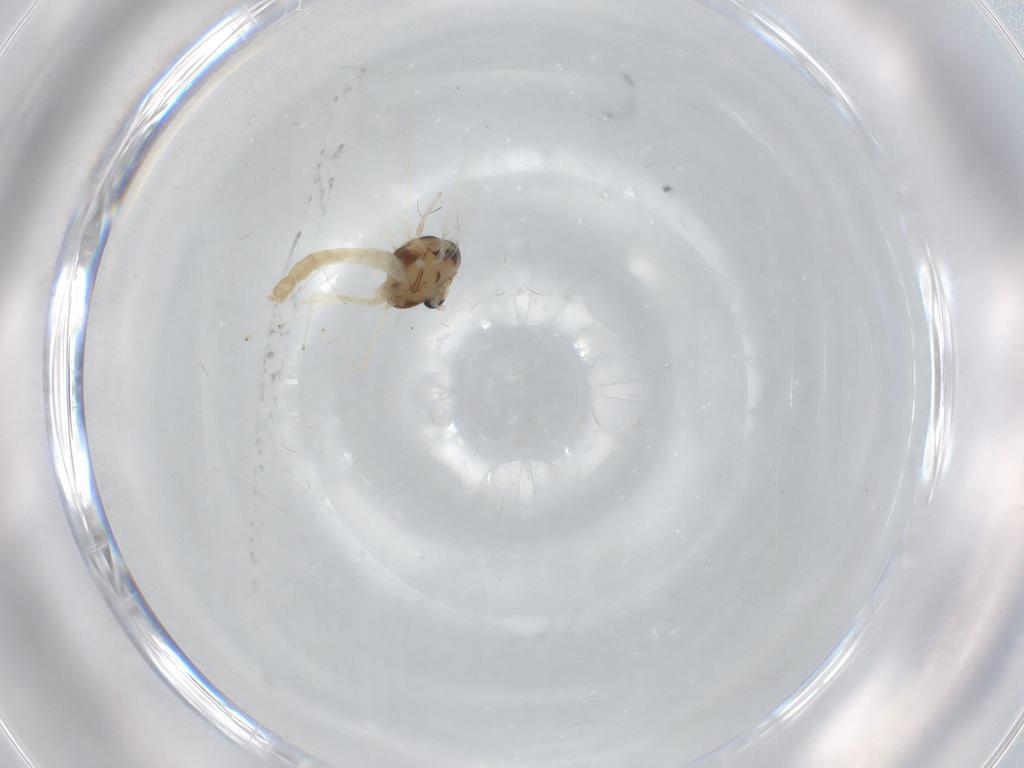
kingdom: Animalia
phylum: Arthropoda
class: Insecta
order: Diptera
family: Chironomidae
